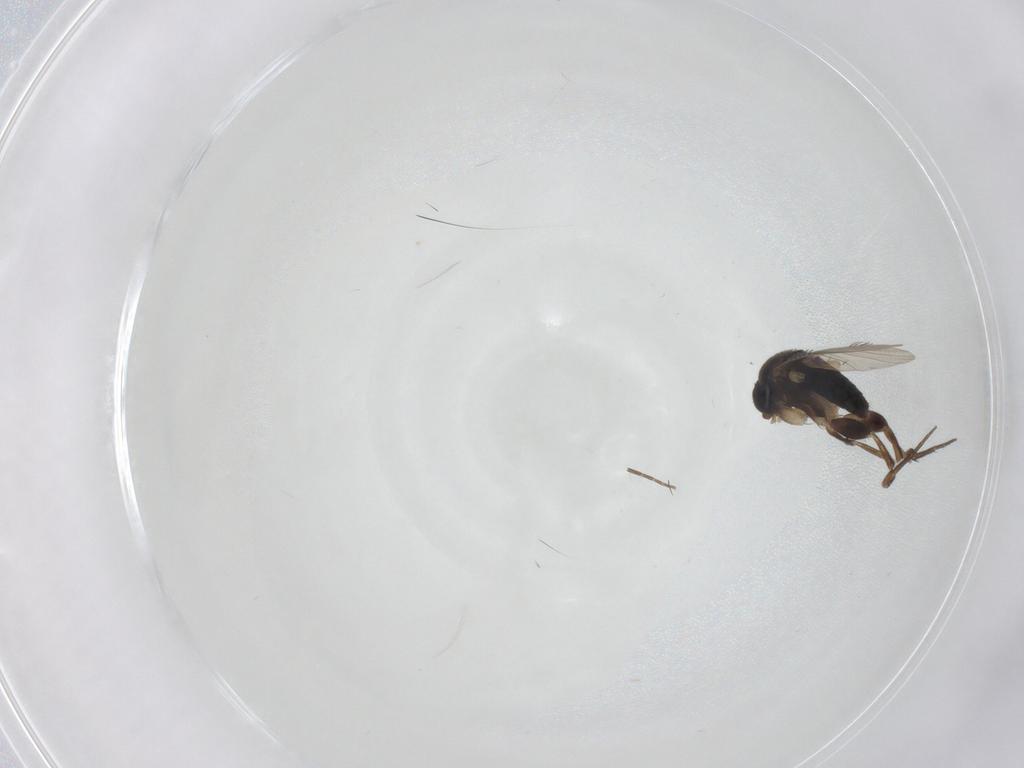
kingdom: Animalia
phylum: Arthropoda
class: Insecta
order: Diptera
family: Phoridae
